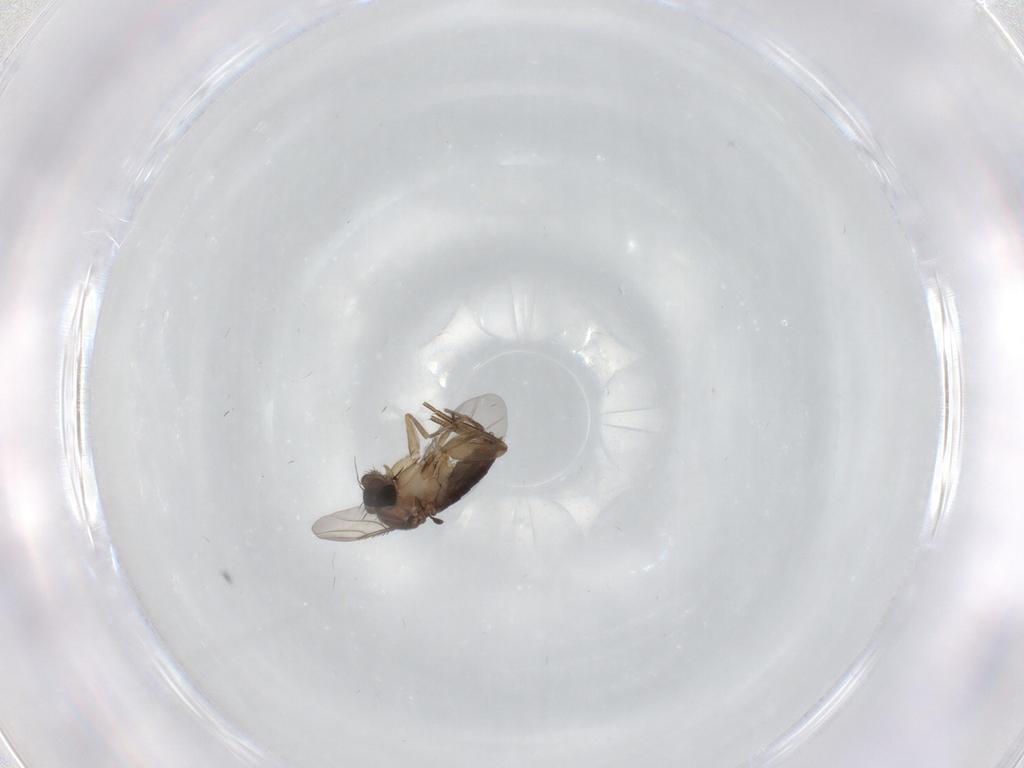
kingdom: Animalia
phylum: Arthropoda
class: Insecta
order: Diptera
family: Phoridae
